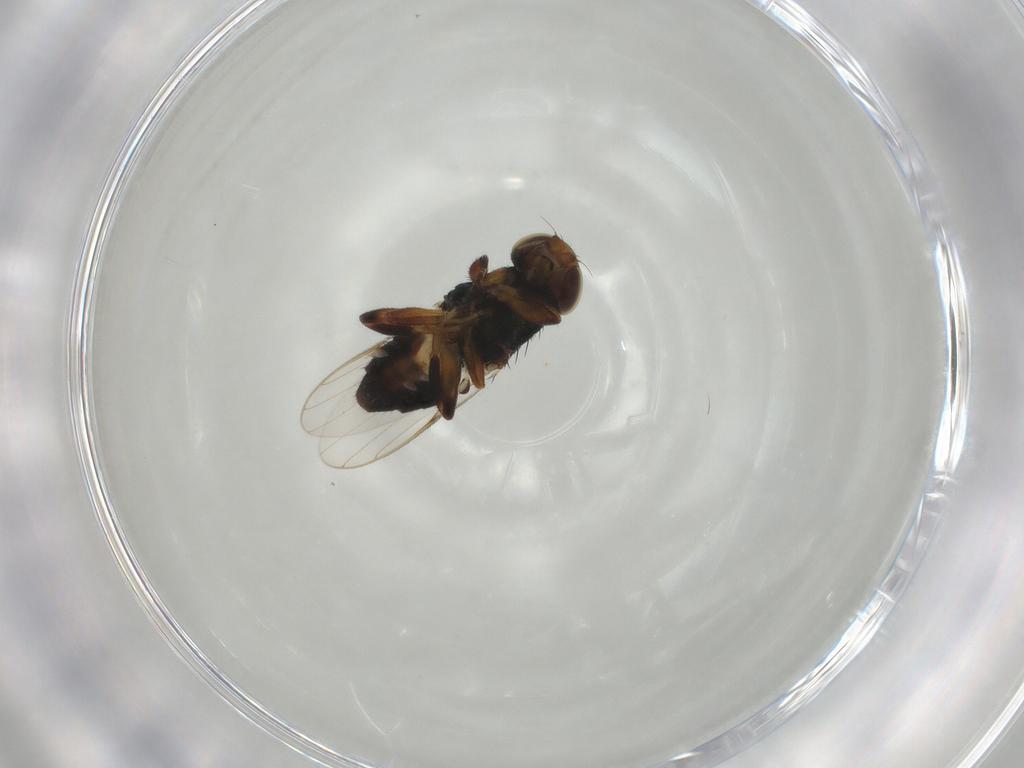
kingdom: Animalia
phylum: Arthropoda
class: Insecta
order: Diptera
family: Chloropidae
